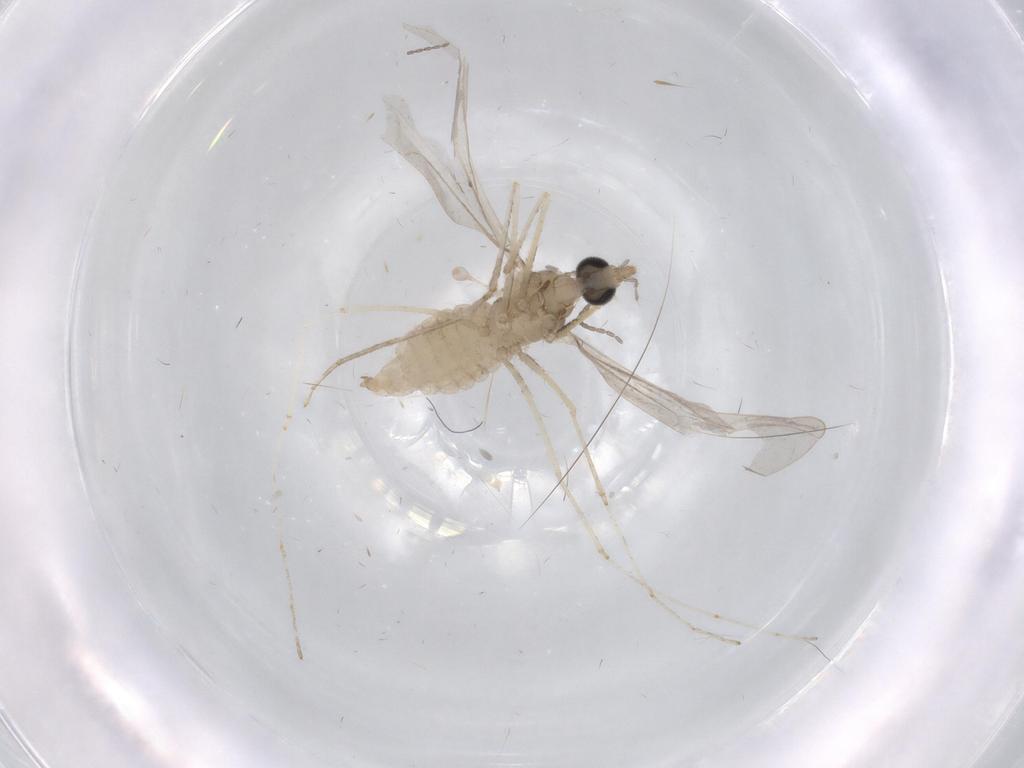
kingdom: Animalia
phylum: Arthropoda
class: Insecta
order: Diptera
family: Cecidomyiidae
